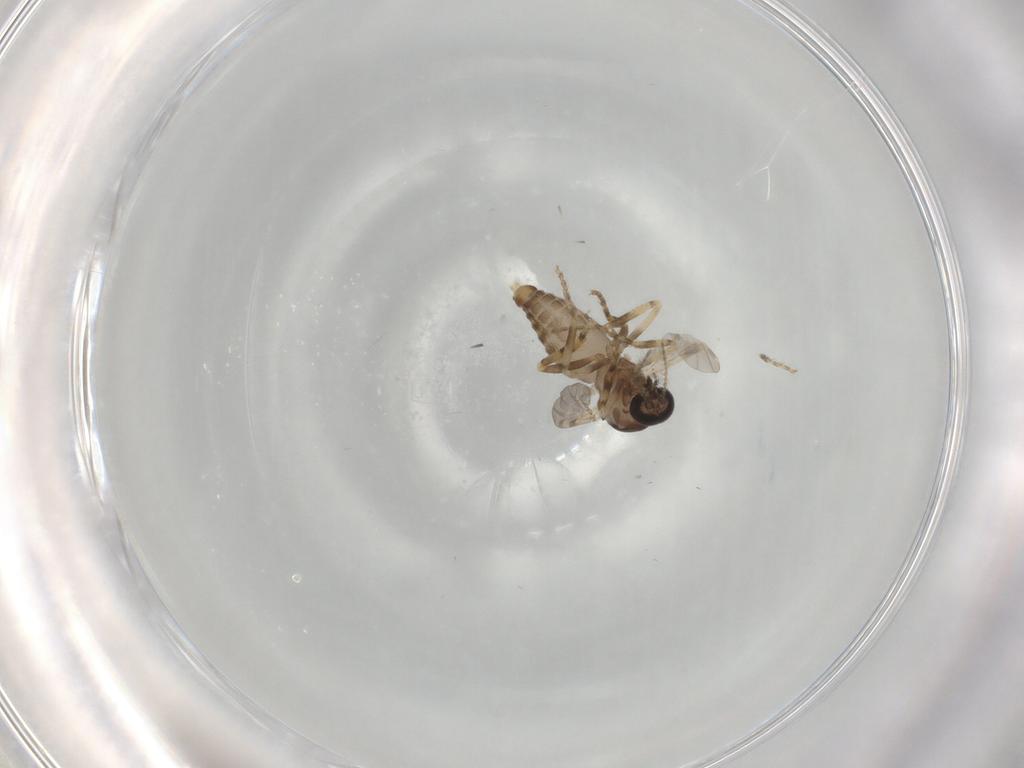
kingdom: Animalia
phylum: Arthropoda
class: Insecta
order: Diptera
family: Ceratopogonidae
